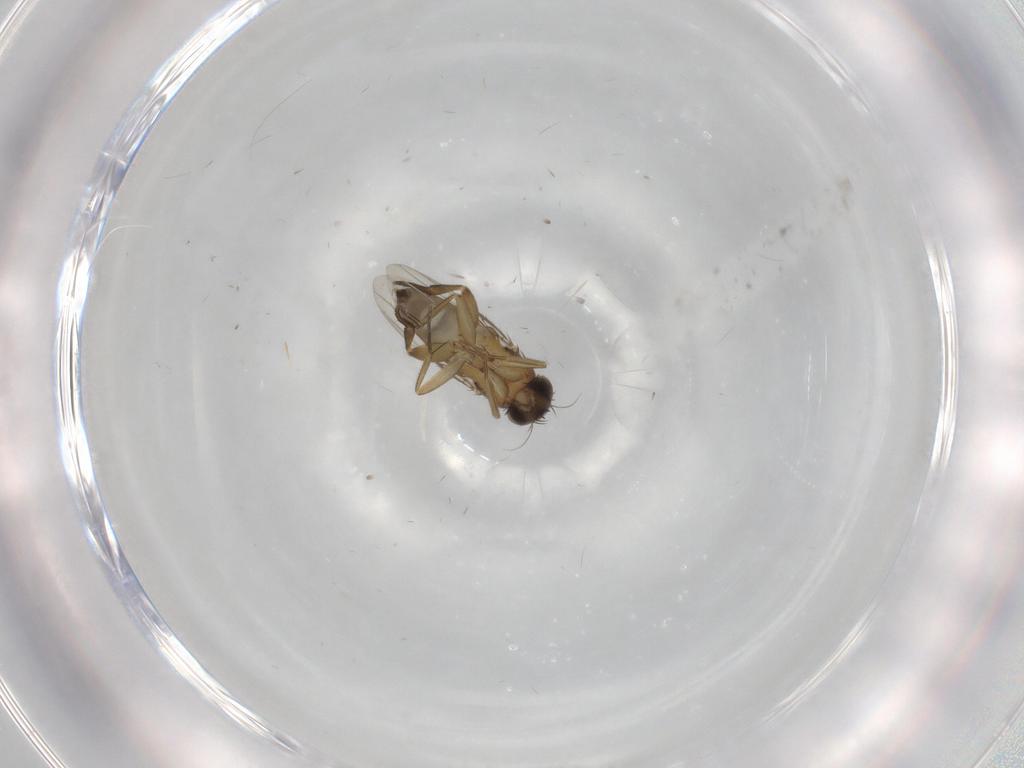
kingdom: Animalia
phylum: Arthropoda
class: Insecta
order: Diptera
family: Phoridae
